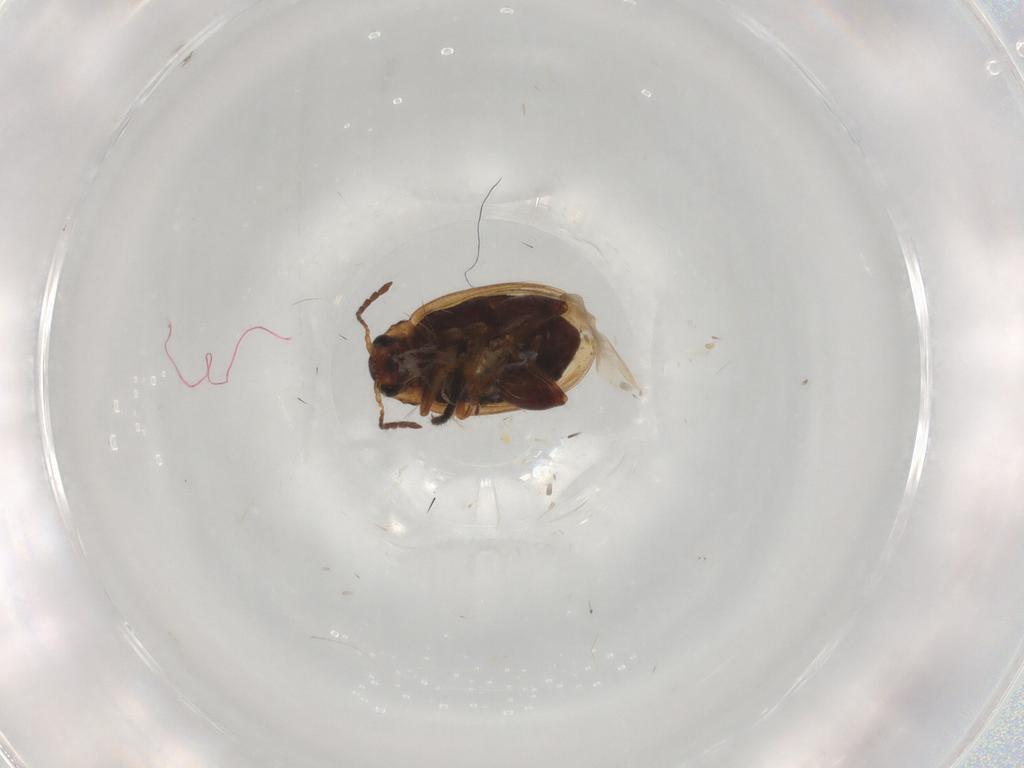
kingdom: Animalia
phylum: Arthropoda
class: Insecta
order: Coleoptera
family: Chrysomelidae
